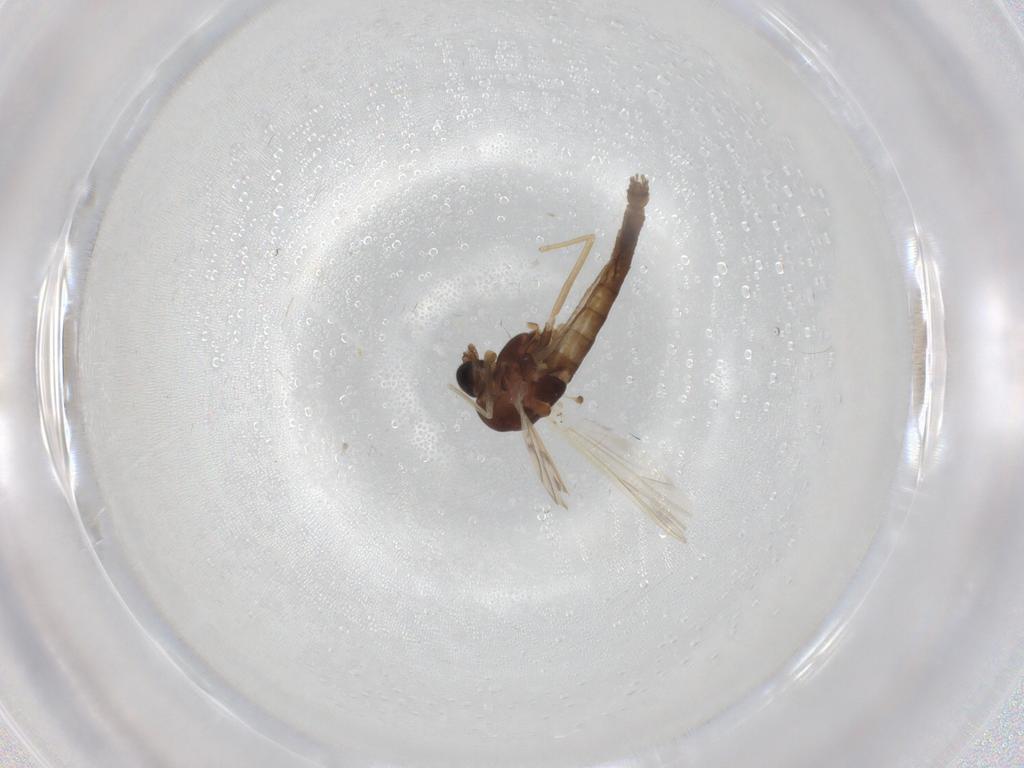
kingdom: Animalia
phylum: Arthropoda
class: Insecta
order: Diptera
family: Chironomidae
